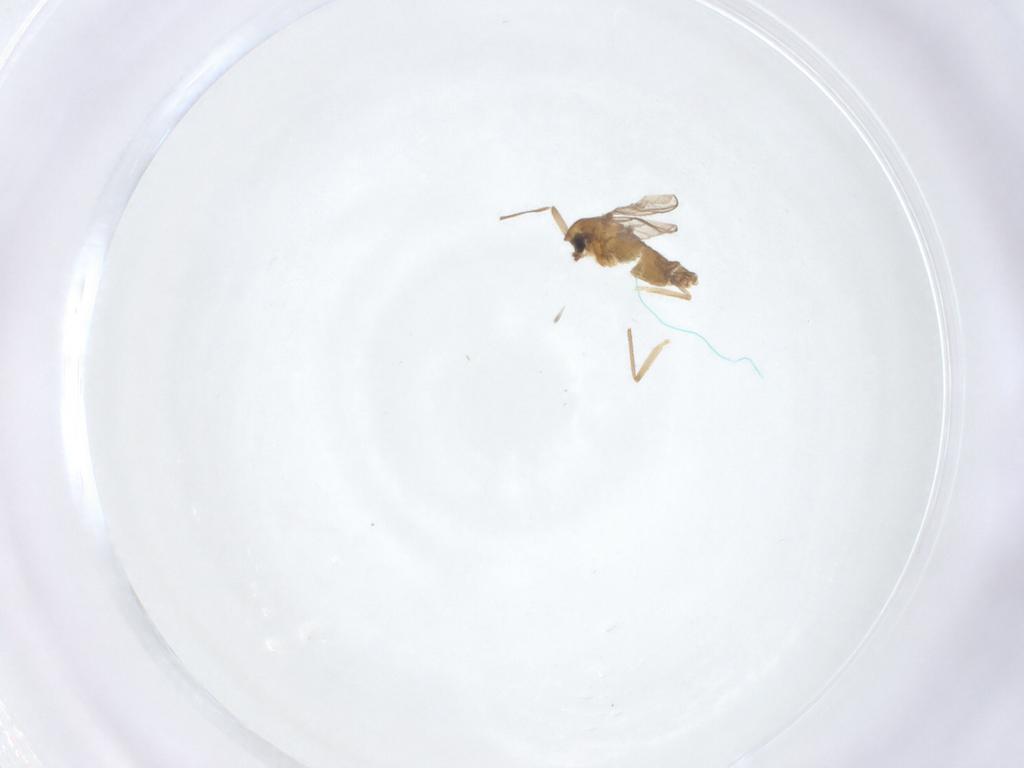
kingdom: Animalia
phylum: Arthropoda
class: Insecta
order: Diptera
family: Chironomidae
